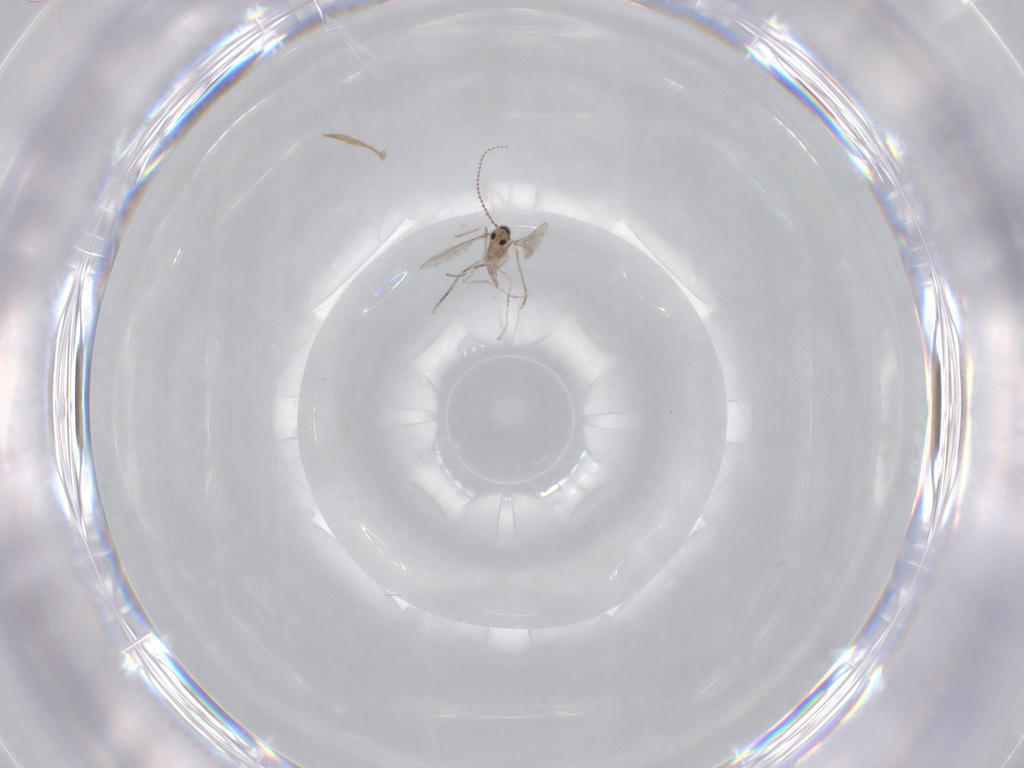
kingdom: Animalia
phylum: Arthropoda
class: Insecta
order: Diptera
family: Cecidomyiidae
